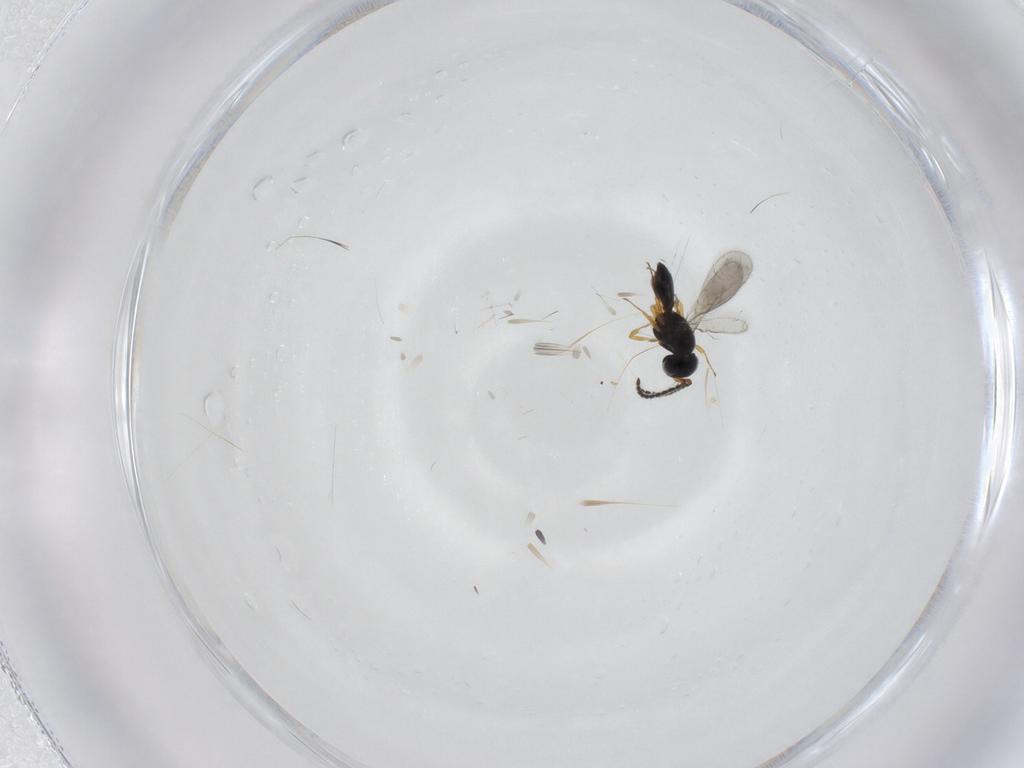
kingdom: Animalia
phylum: Arthropoda
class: Insecta
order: Hymenoptera
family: Scelionidae
